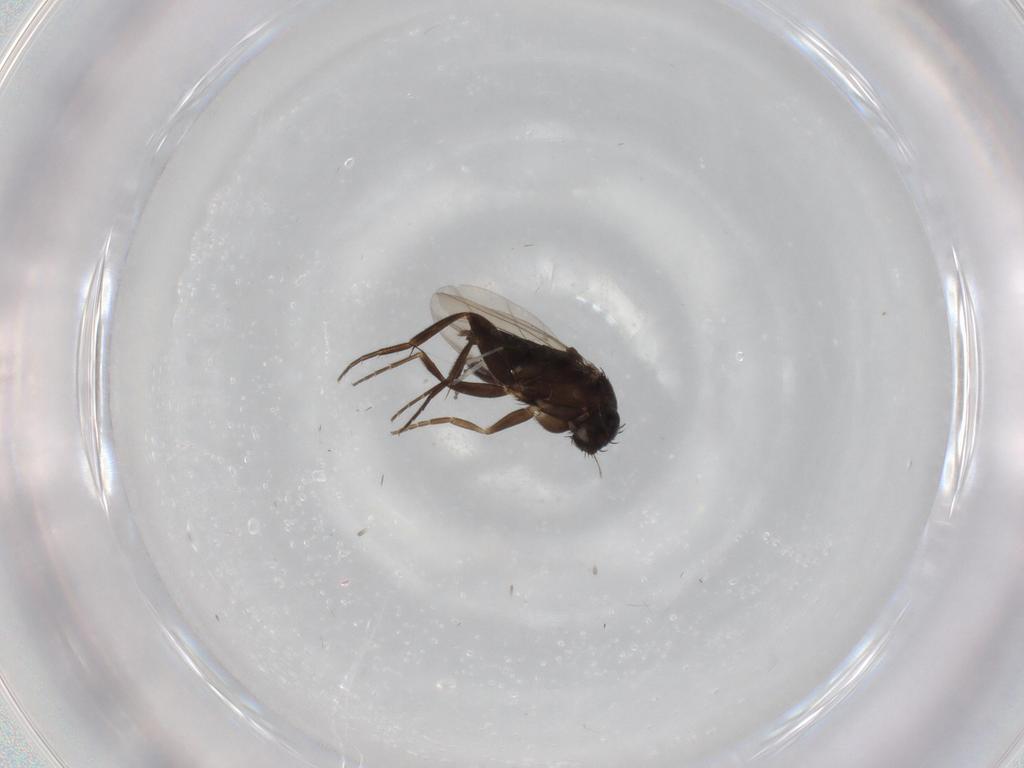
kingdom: Animalia
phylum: Arthropoda
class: Insecta
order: Diptera
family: Phoridae
